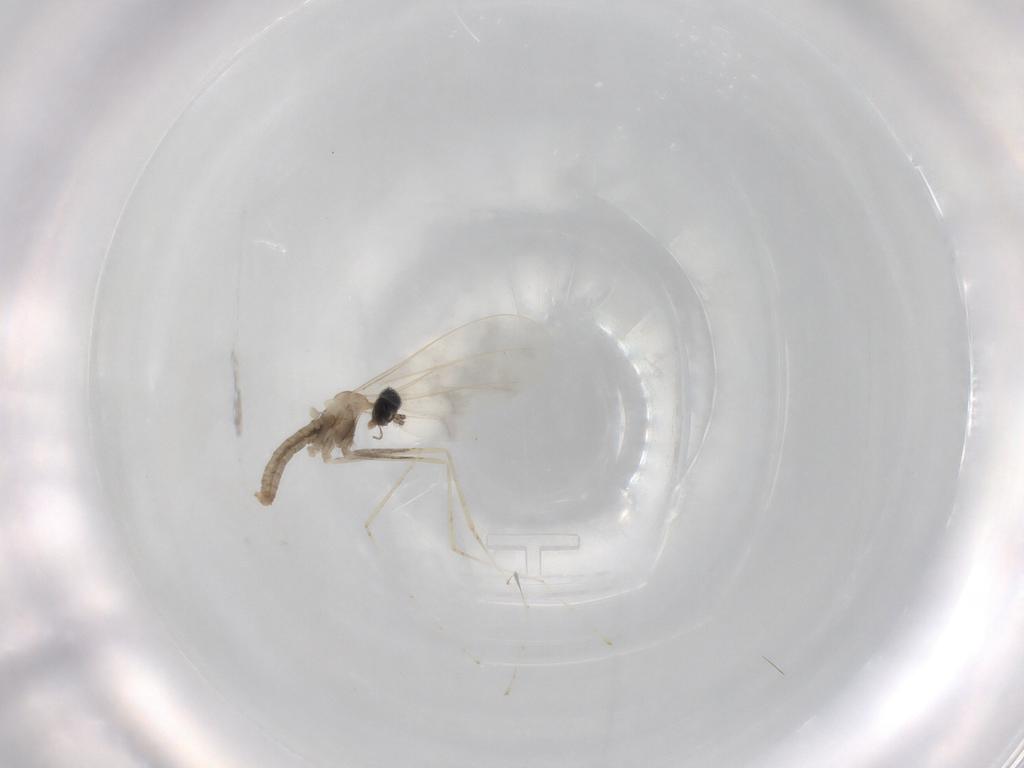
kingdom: Animalia
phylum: Arthropoda
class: Insecta
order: Diptera
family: Cecidomyiidae
